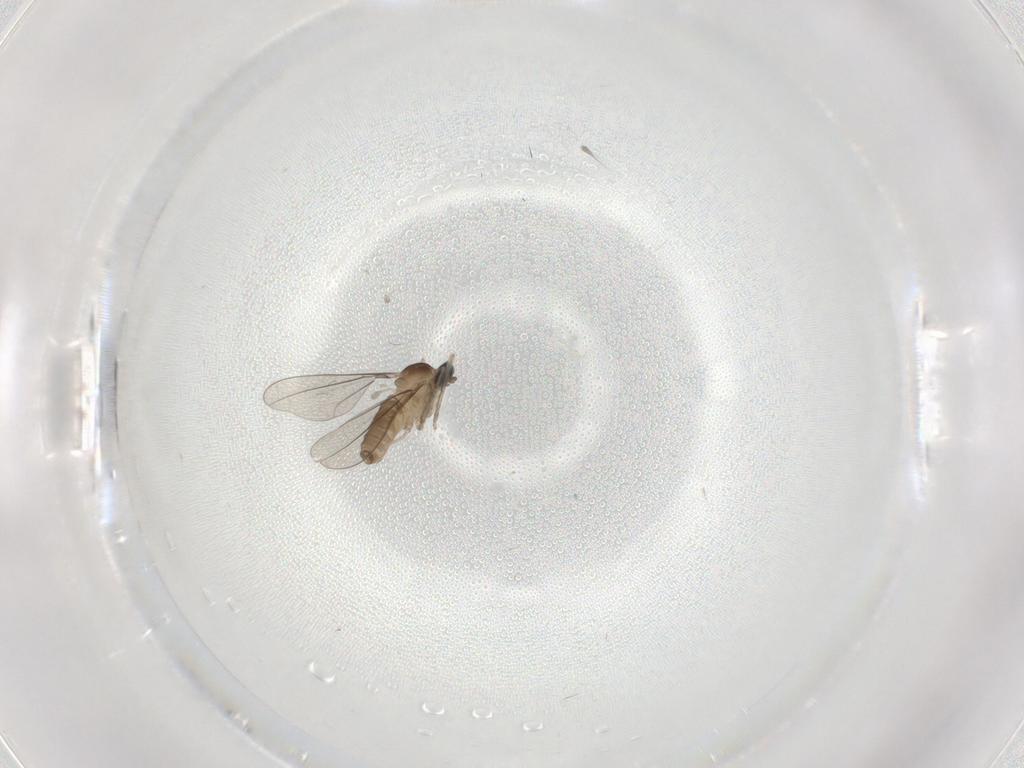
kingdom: Animalia
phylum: Arthropoda
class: Insecta
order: Diptera
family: Cecidomyiidae
